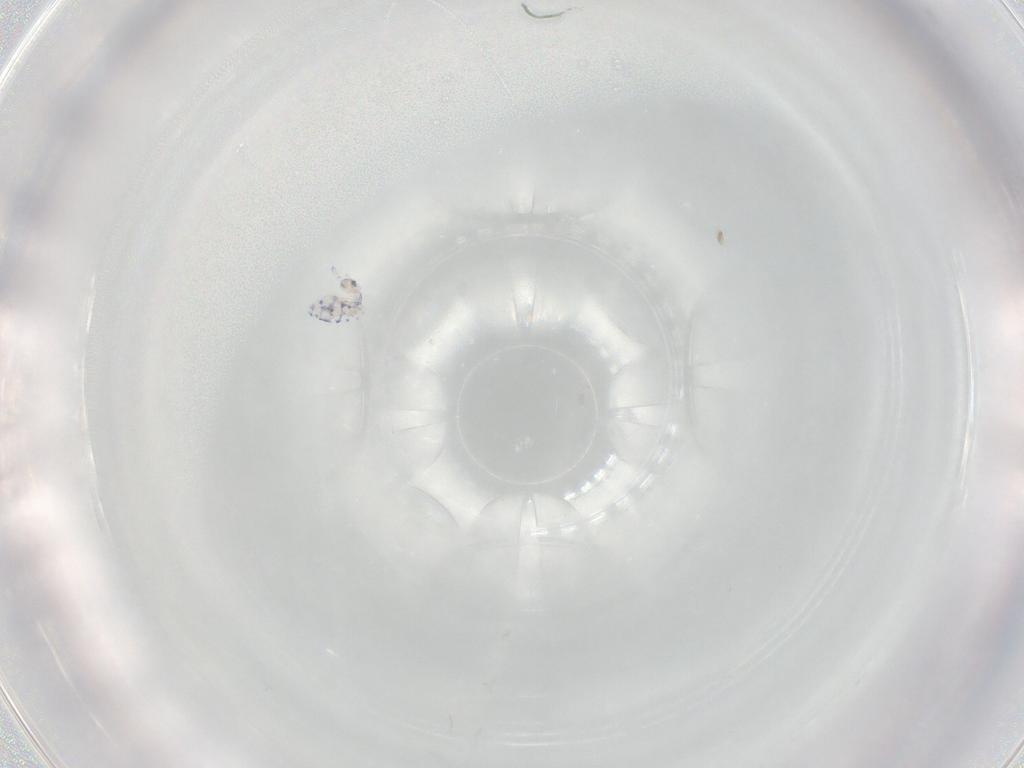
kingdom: Animalia
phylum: Arthropoda
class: Collembola
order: Entomobryomorpha
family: Entomobryidae
